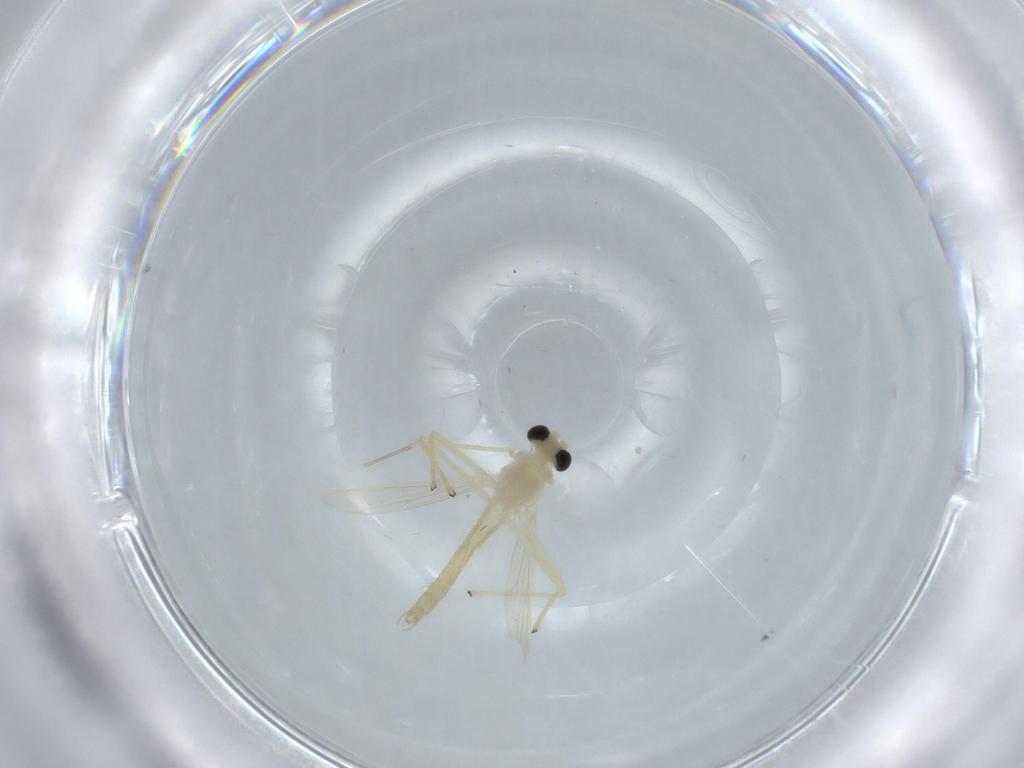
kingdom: Animalia
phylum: Arthropoda
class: Insecta
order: Diptera
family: Chironomidae
